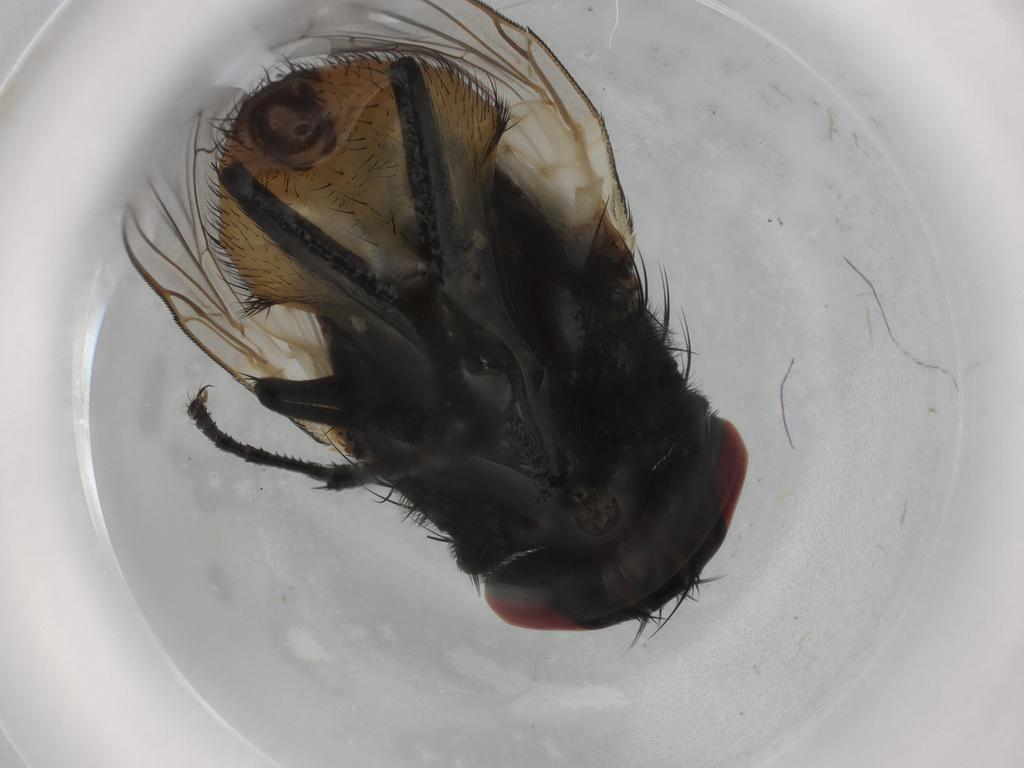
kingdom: Animalia
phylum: Arthropoda
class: Insecta
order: Diptera
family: Muscidae
